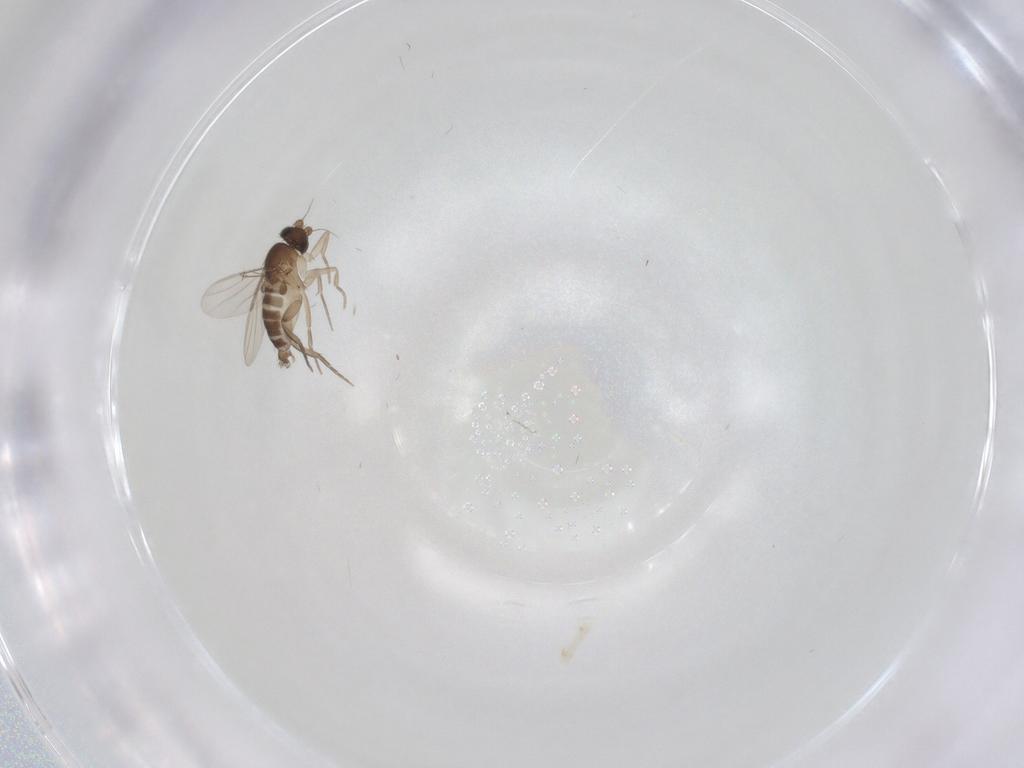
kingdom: Animalia
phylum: Arthropoda
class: Insecta
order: Diptera
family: Phoridae
